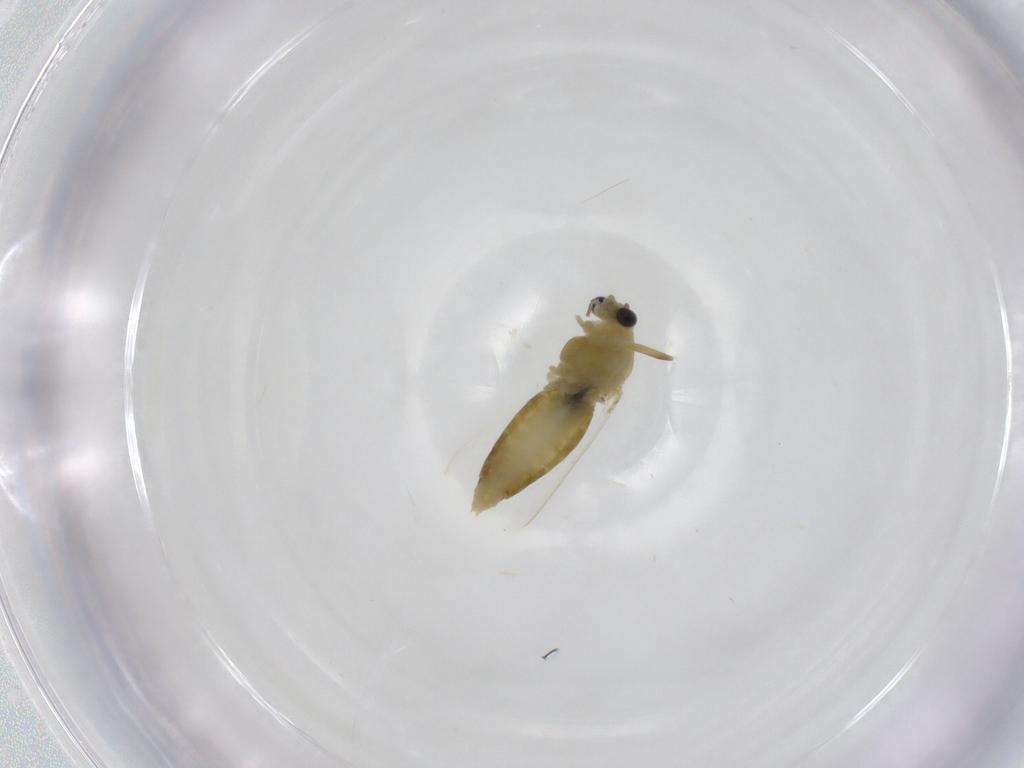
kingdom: Animalia
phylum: Arthropoda
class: Insecta
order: Diptera
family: Chironomidae
